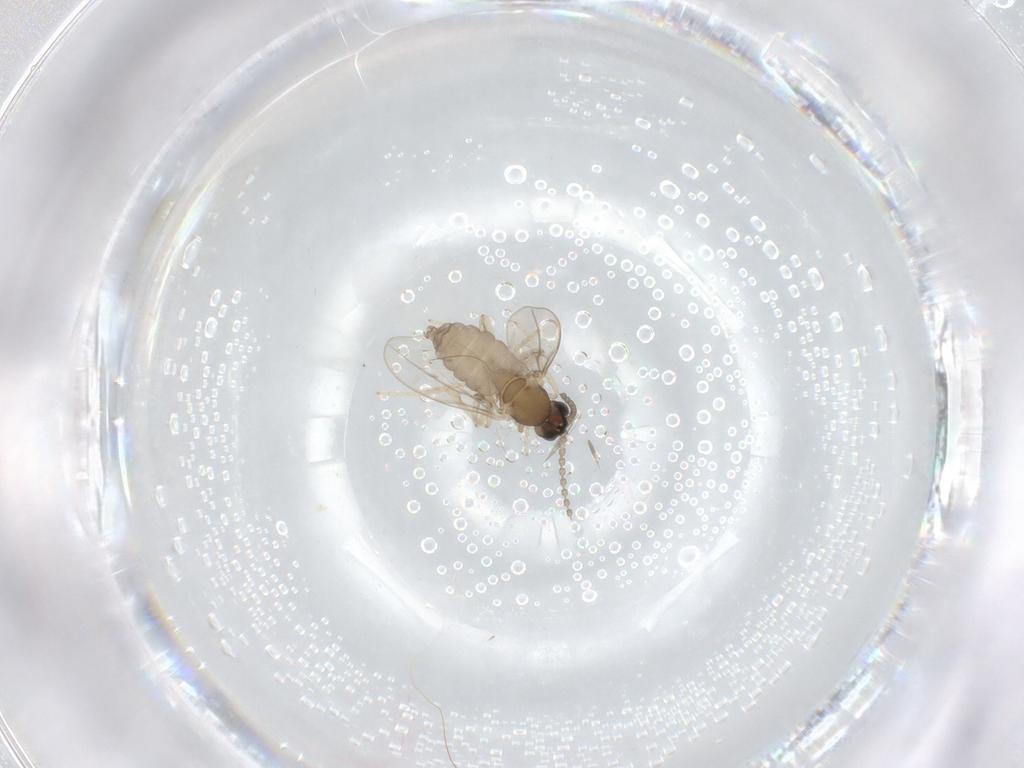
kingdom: Animalia
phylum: Arthropoda
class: Insecta
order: Diptera
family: Cecidomyiidae
